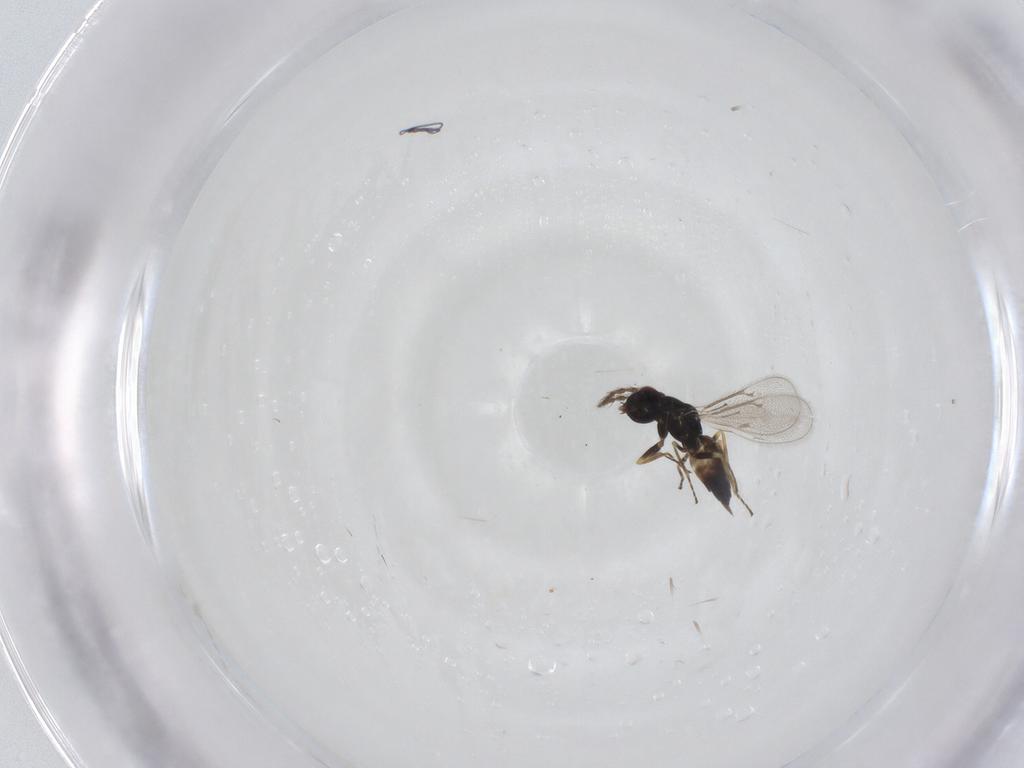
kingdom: Animalia
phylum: Arthropoda
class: Insecta
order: Hymenoptera
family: Eulophidae
